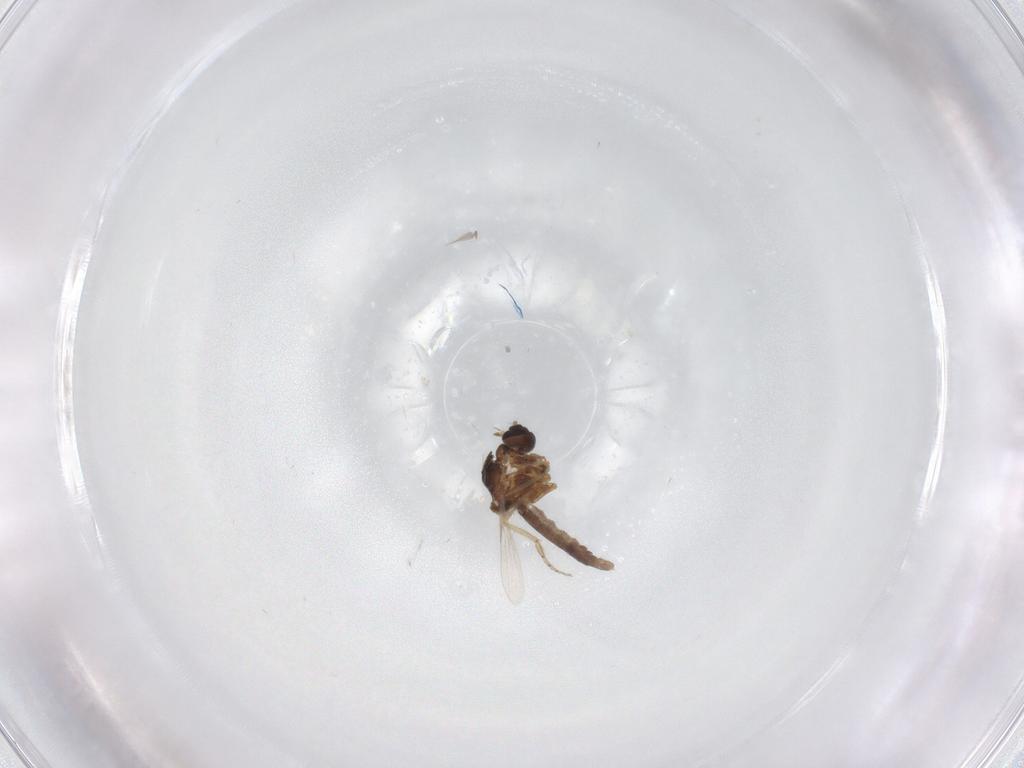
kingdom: Animalia
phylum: Arthropoda
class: Insecta
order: Diptera
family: Ceratopogonidae
